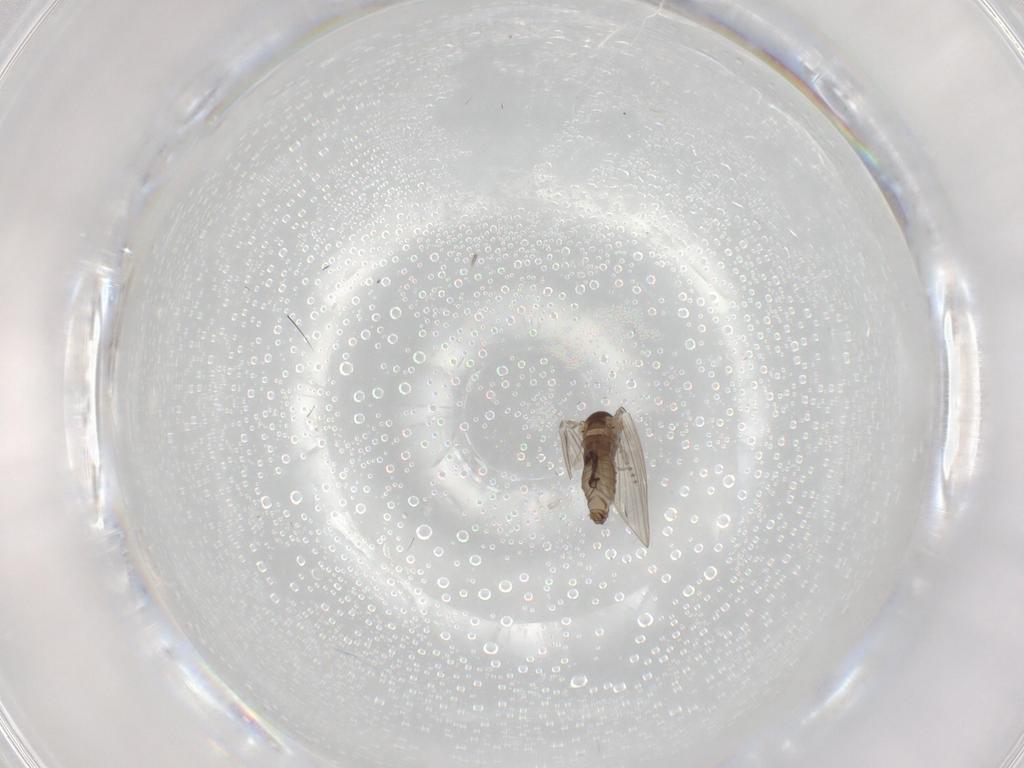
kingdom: Animalia
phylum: Arthropoda
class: Insecta
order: Diptera
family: Psychodidae
